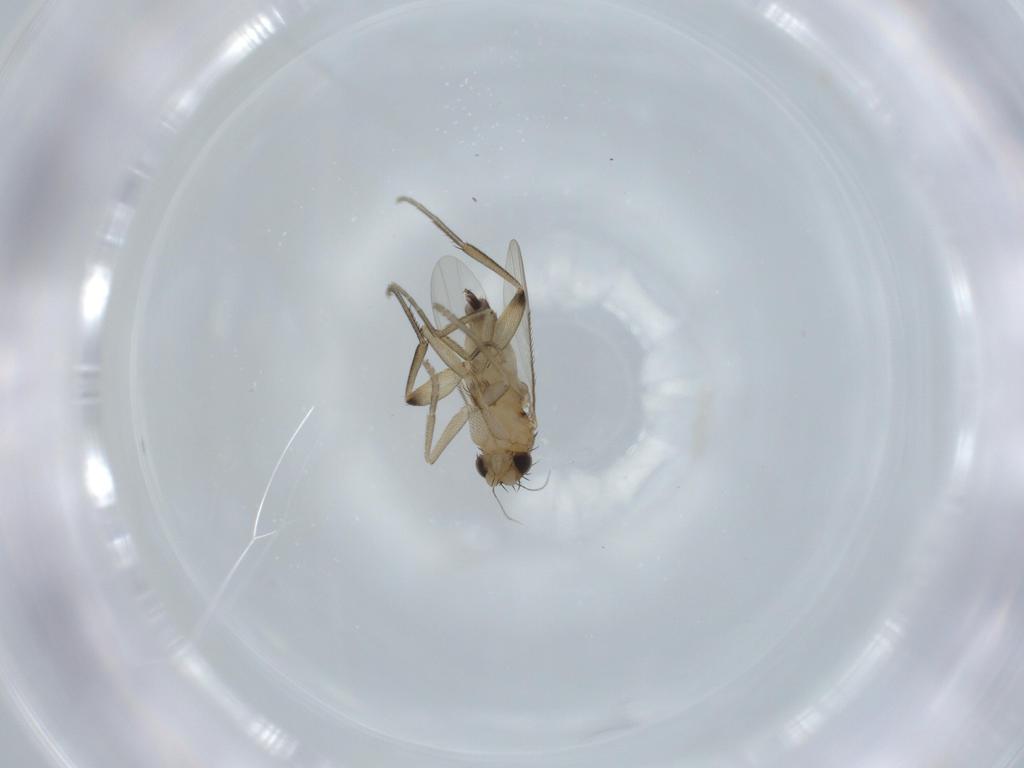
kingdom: Animalia
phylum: Arthropoda
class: Insecta
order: Diptera
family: Phoridae
